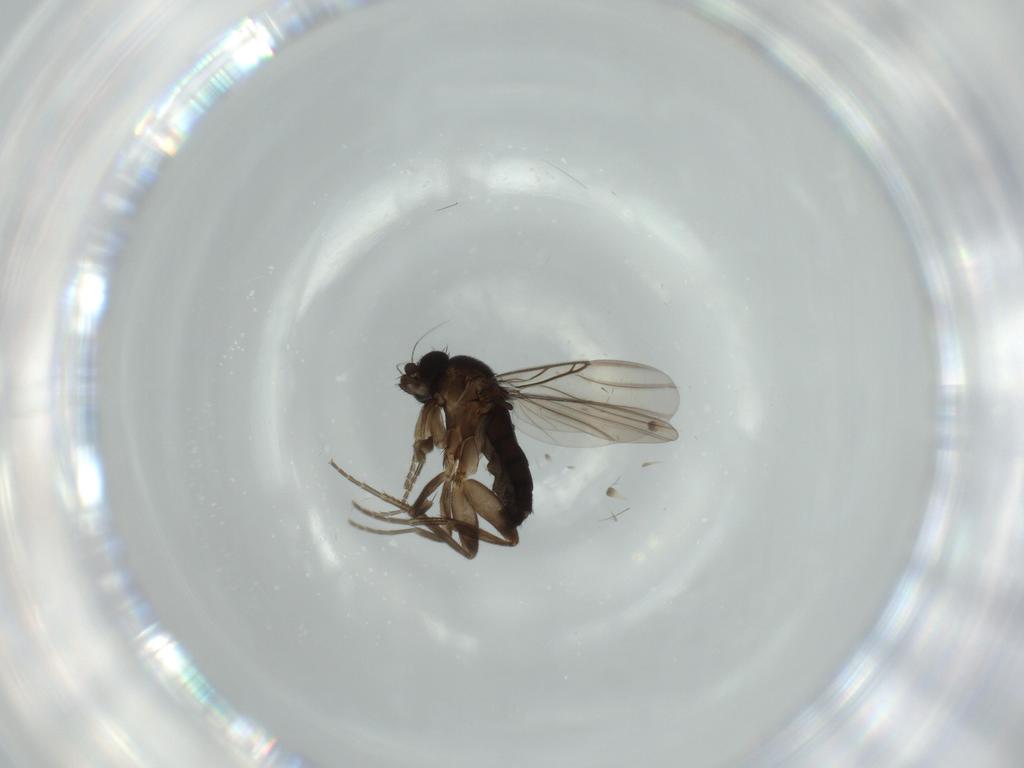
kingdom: Animalia
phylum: Arthropoda
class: Insecta
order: Diptera
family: Phoridae
